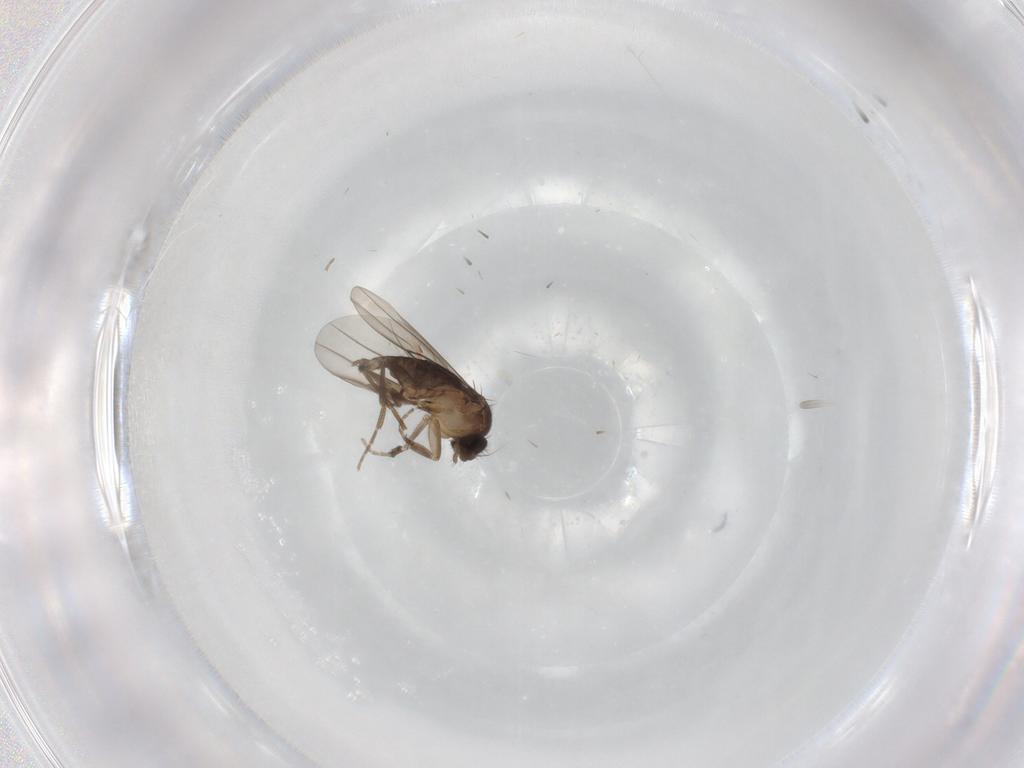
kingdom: Animalia
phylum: Arthropoda
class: Insecta
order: Diptera
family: Phoridae
